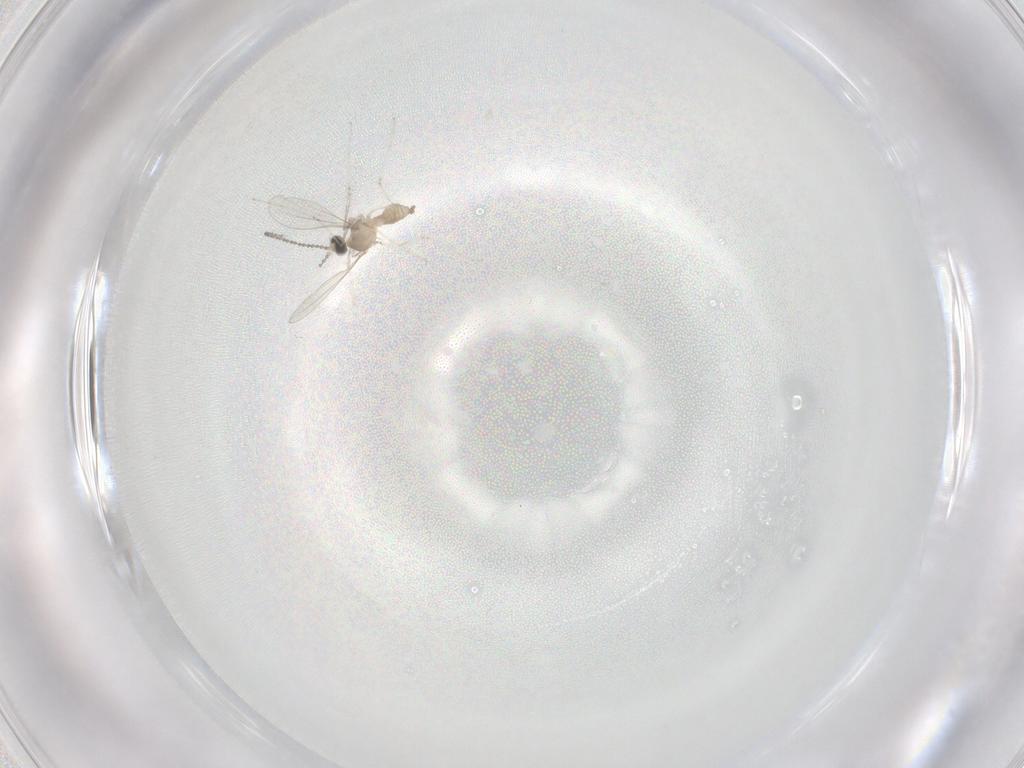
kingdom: Animalia
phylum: Arthropoda
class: Insecta
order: Diptera
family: Cecidomyiidae
